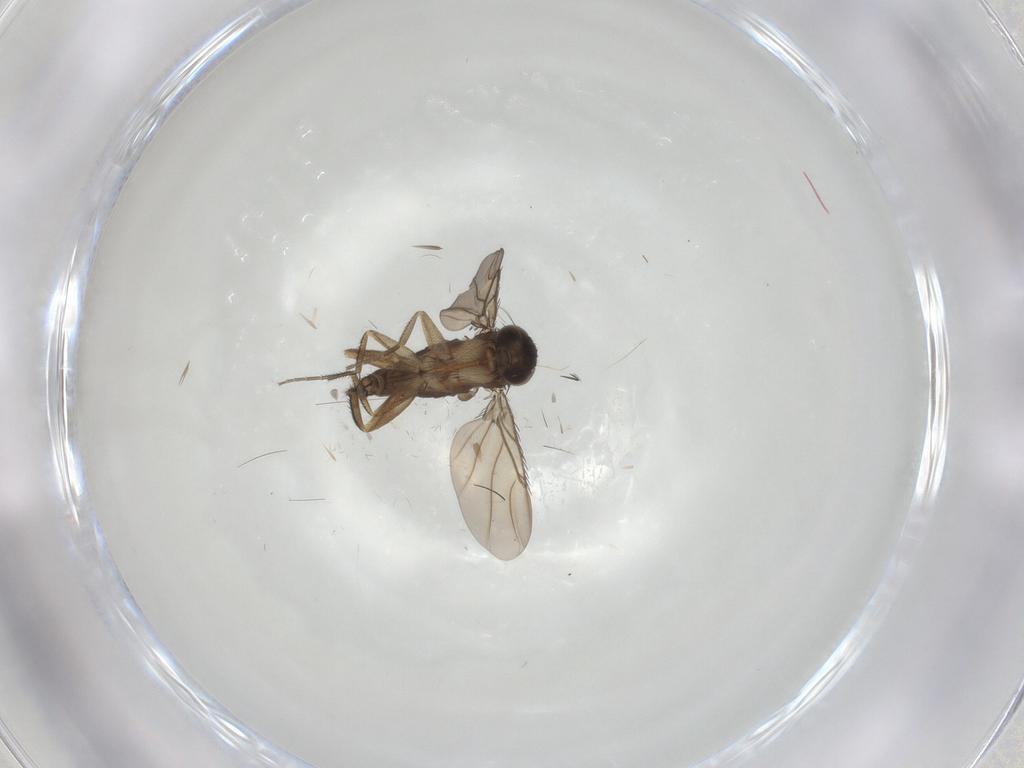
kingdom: Animalia
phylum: Arthropoda
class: Insecta
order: Diptera
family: Phoridae
